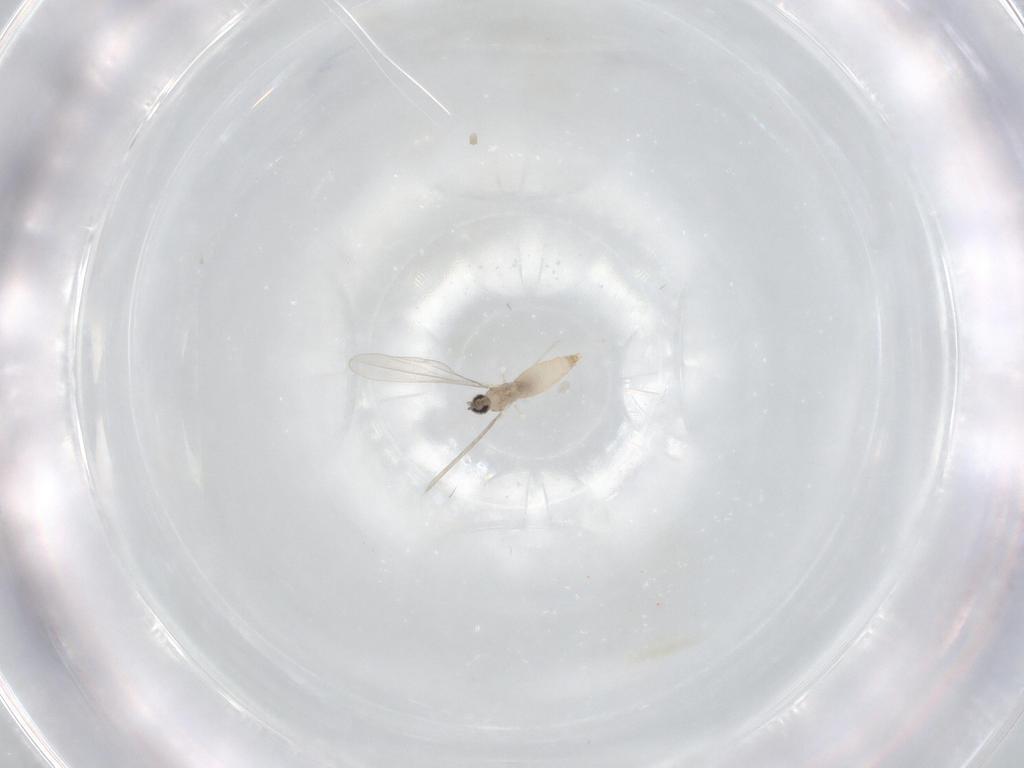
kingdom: Animalia
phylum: Arthropoda
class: Insecta
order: Diptera
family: Cecidomyiidae
